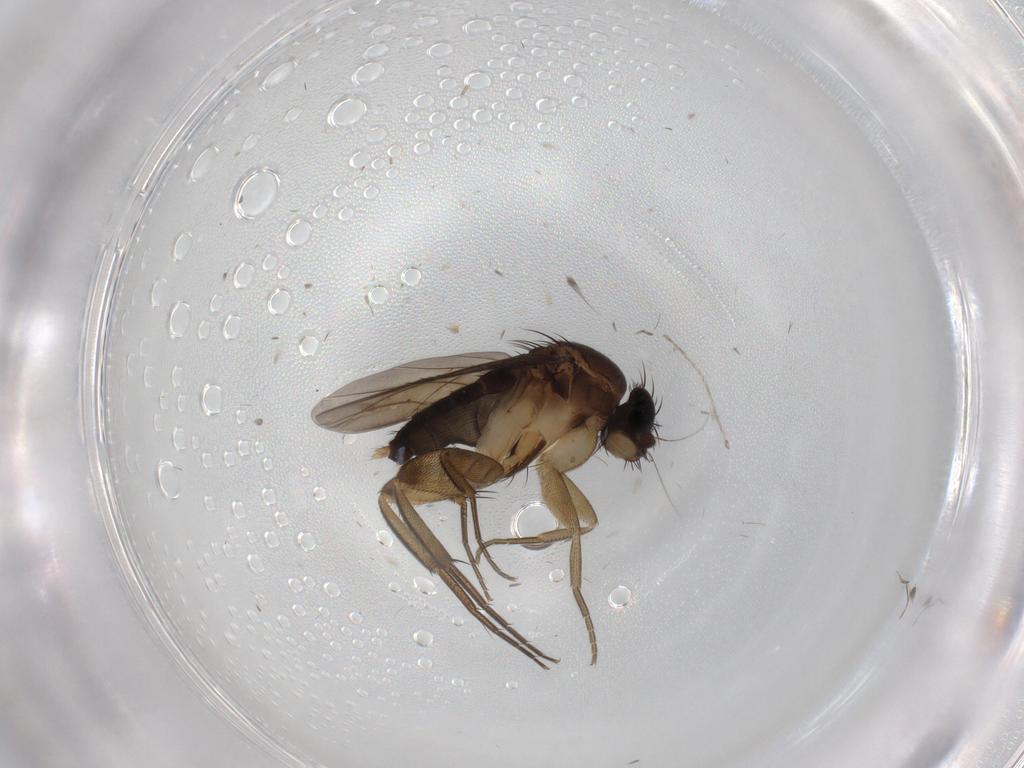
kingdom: Animalia
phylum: Arthropoda
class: Insecta
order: Diptera
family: Phoridae
